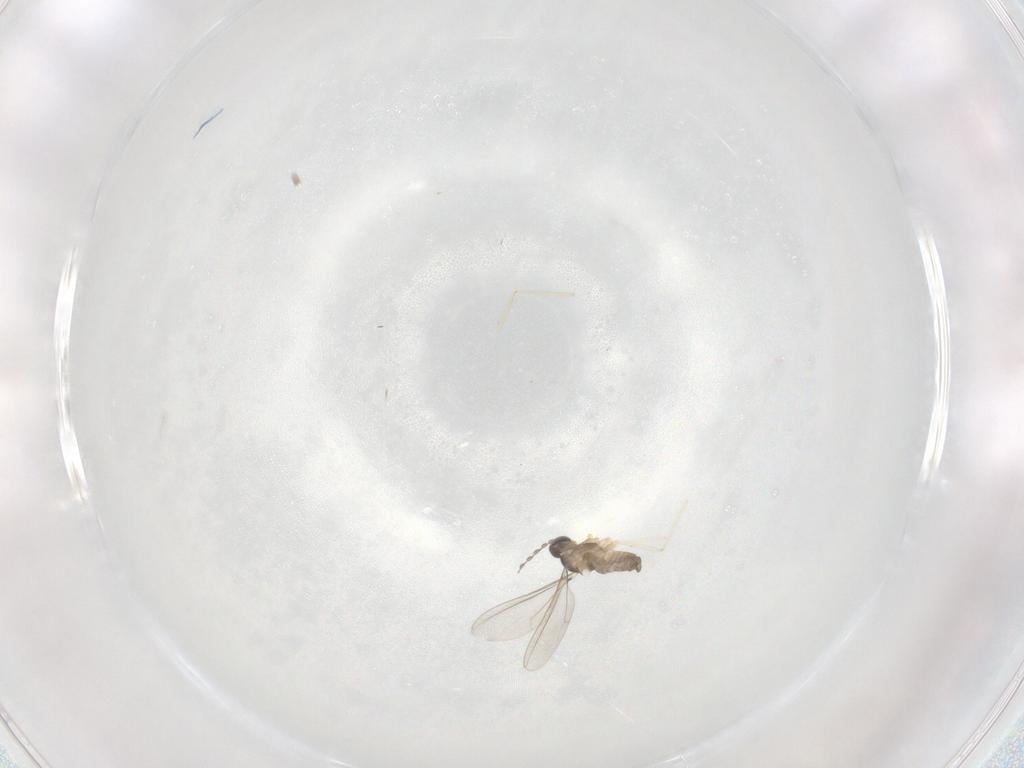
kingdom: Animalia
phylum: Arthropoda
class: Insecta
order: Diptera
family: Cecidomyiidae
